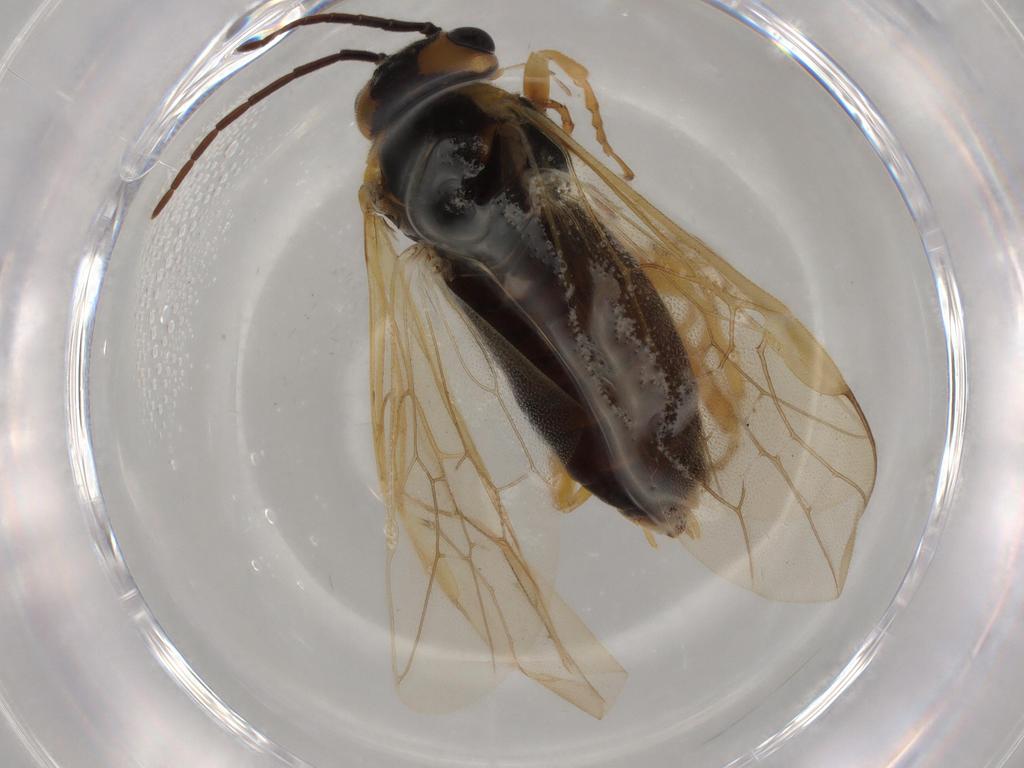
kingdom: Animalia
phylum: Arthropoda
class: Insecta
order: Hymenoptera
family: Tenthredinidae
